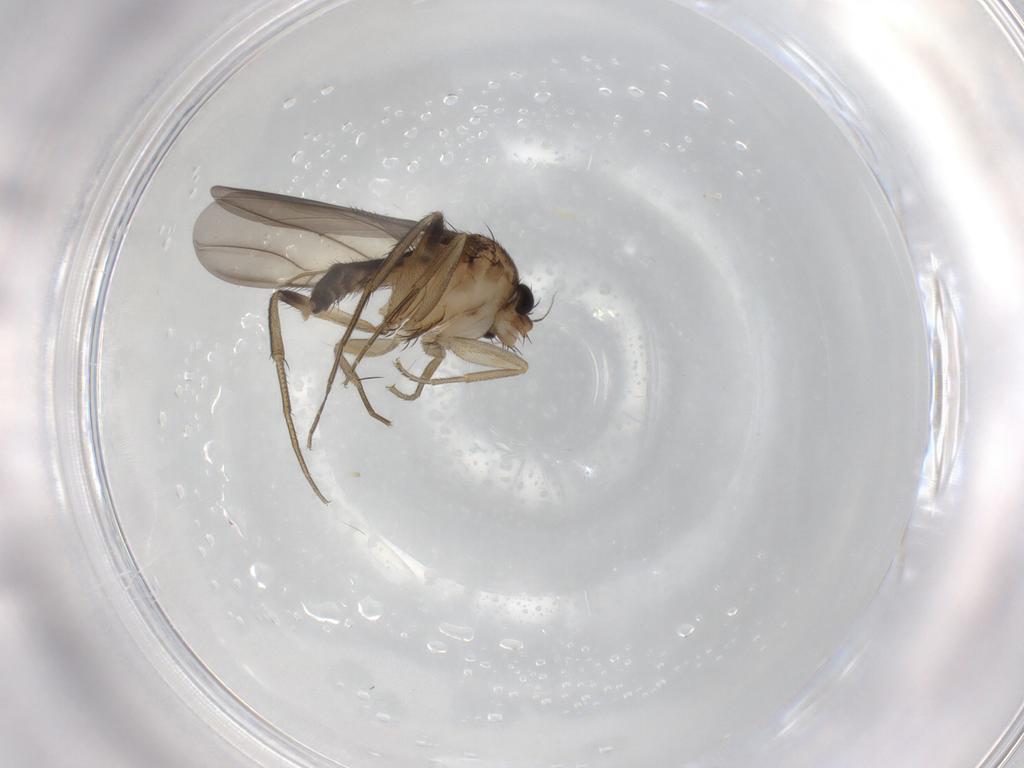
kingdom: Animalia
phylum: Arthropoda
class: Insecta
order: Diptera
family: Phoridae
